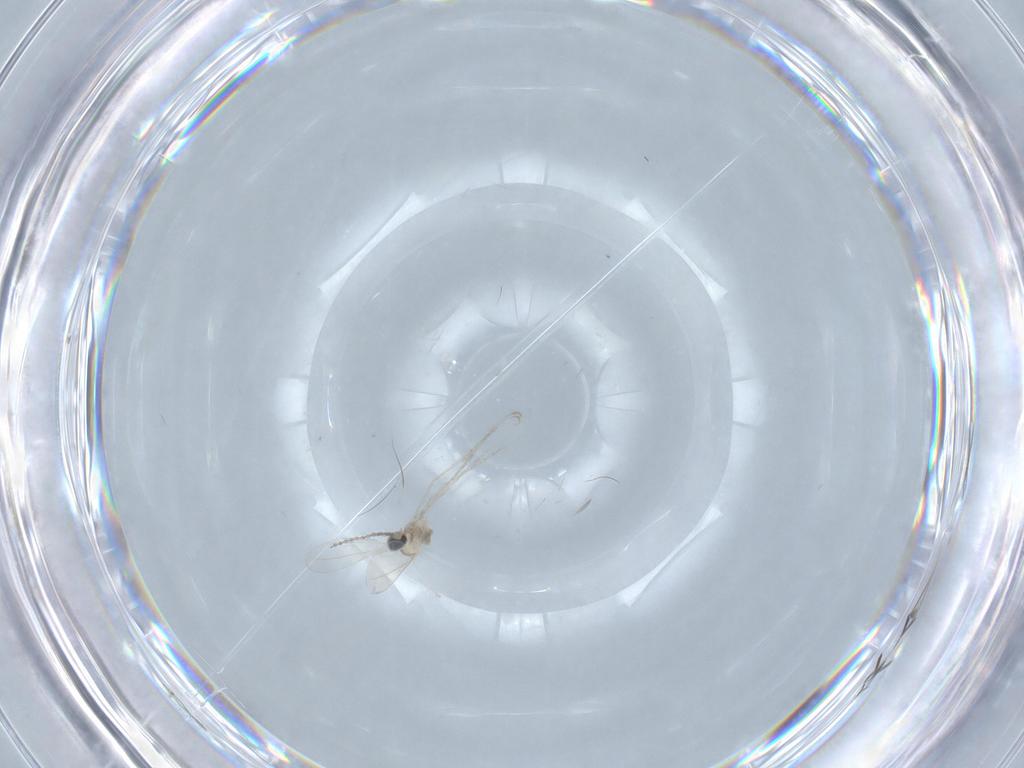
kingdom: Animalia
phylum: Arthropoda
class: Insecta
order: Diptera
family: Cecidomyiidae
